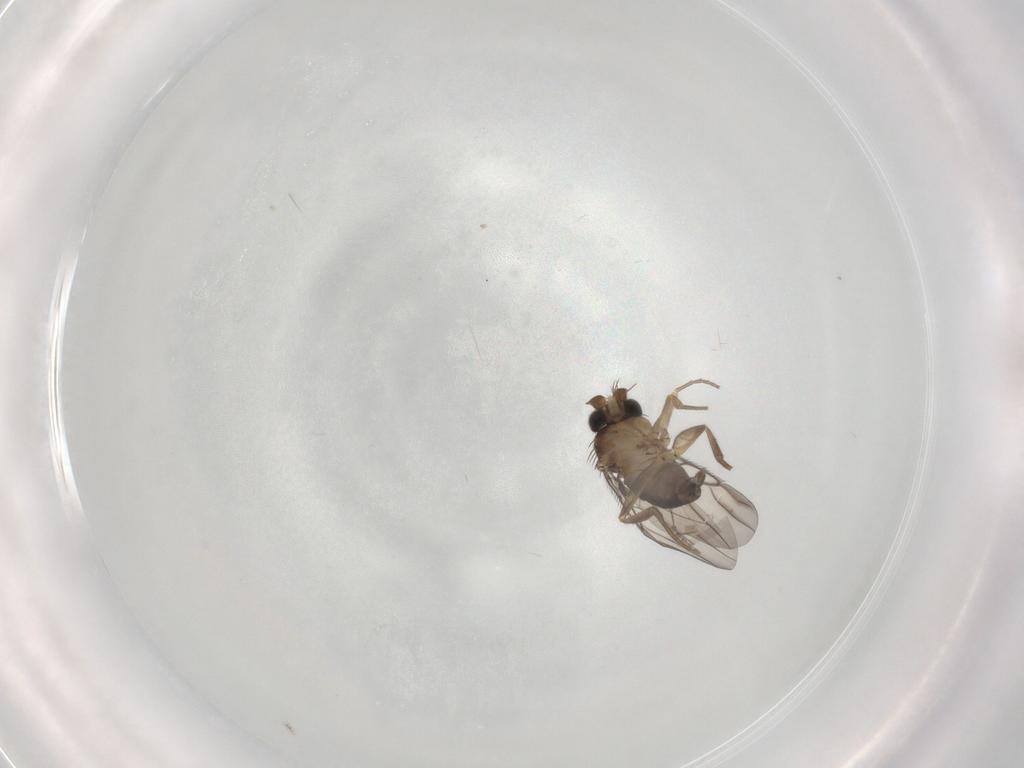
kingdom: Animalia
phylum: Arthropoda
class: Insecta
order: Diptera
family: Phoridae
